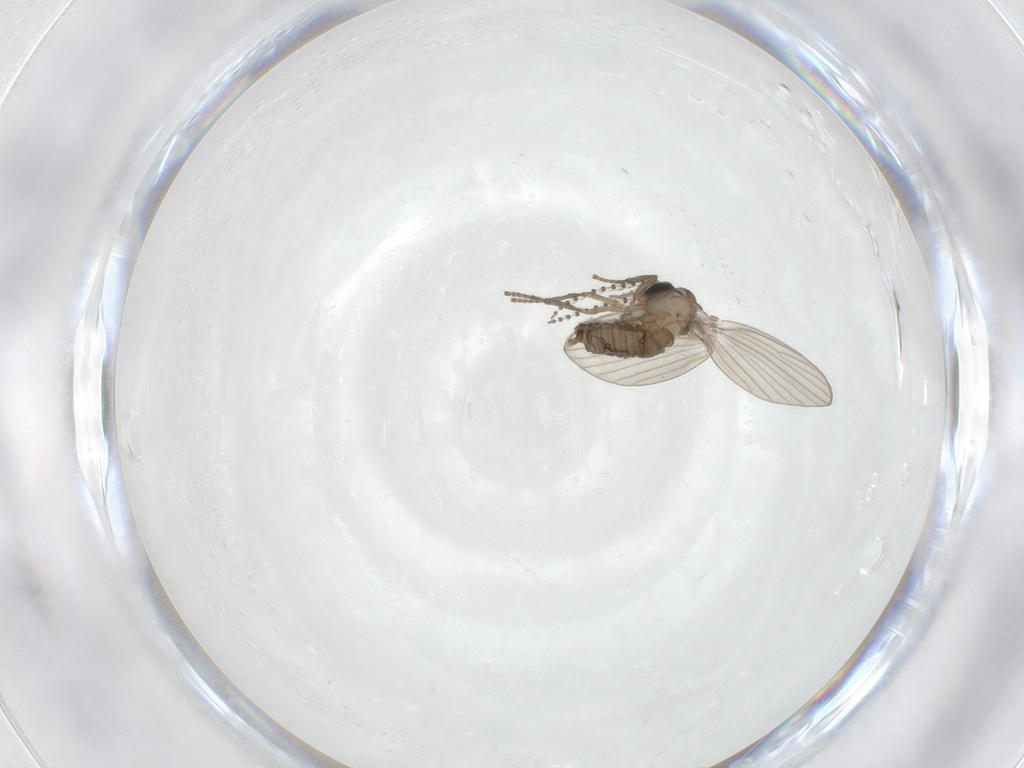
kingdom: Animalia
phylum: Arthropoda
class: Insecta
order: Diptera
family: Psychodidae
